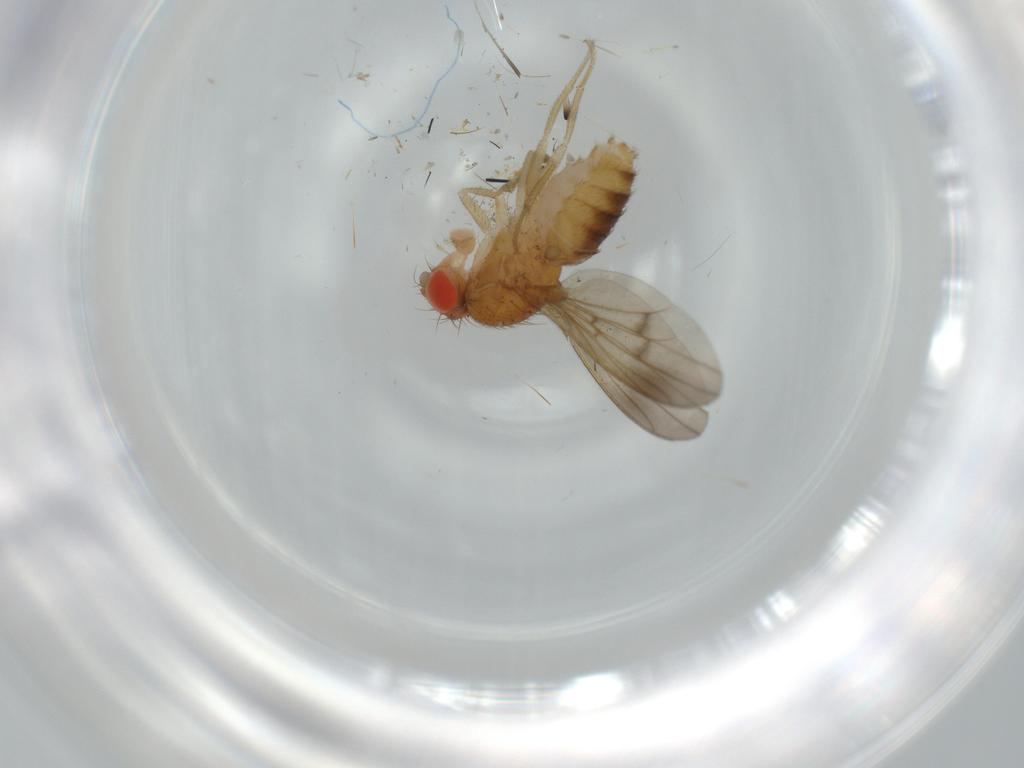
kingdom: Animalia
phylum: Arthropoda
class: Insecta
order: Diptera
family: Drosophilidae
